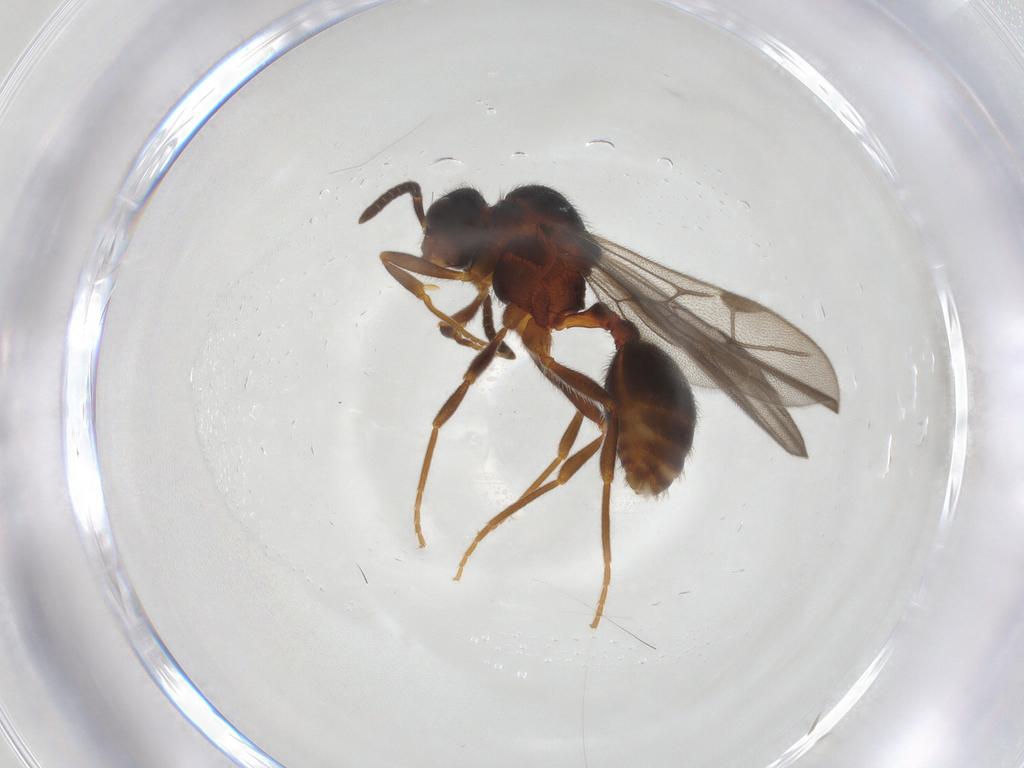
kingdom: Animalia
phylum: Arthropoda
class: Insecta
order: Hymenoptera
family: Formicidae
